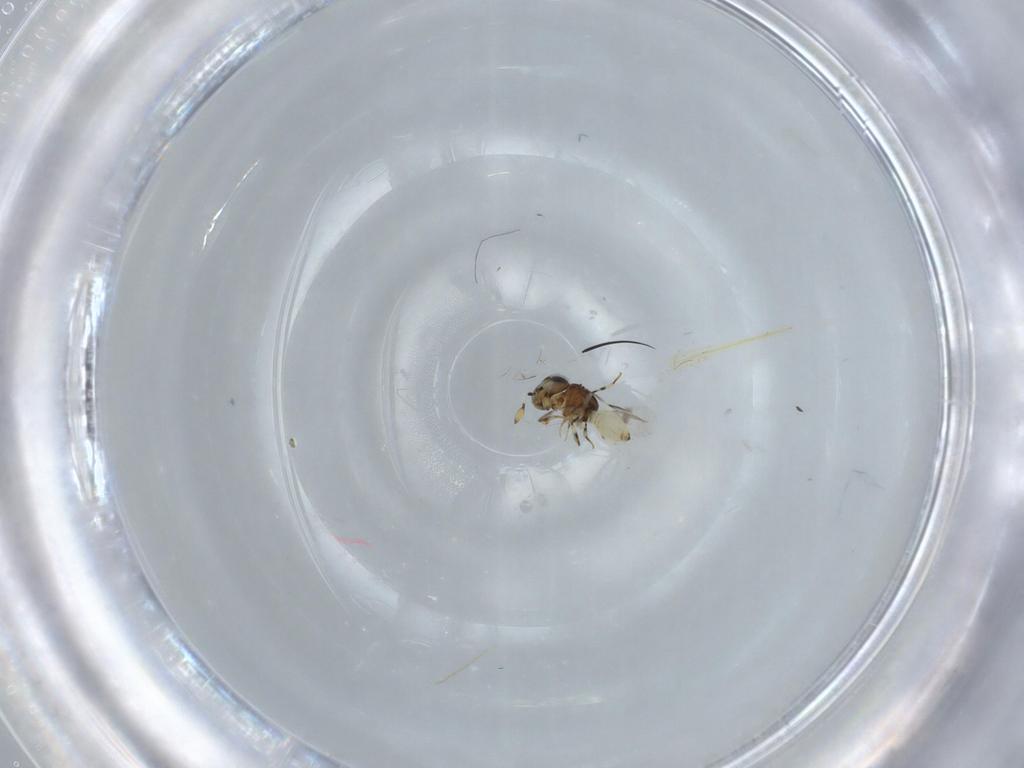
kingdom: Animalia
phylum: Arthropoda
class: Insecta
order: Hymenoptera
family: Scelionidae
